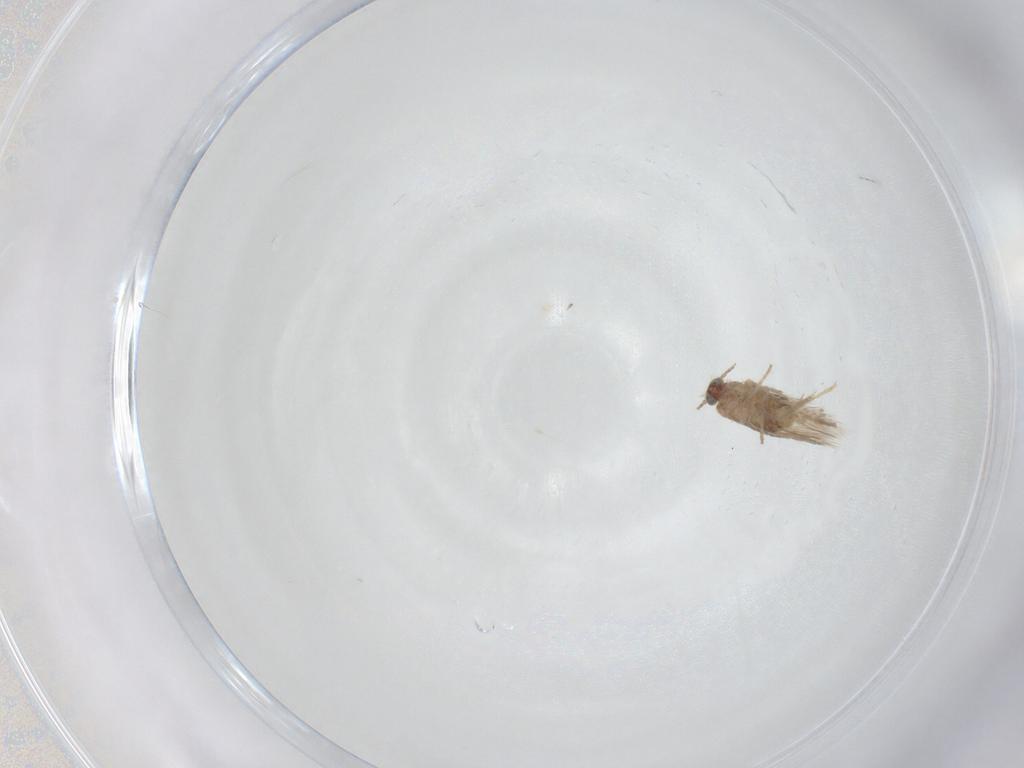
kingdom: Animalia
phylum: Arthropoda
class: Insecta
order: Lepidoptera
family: Nepticulidae
